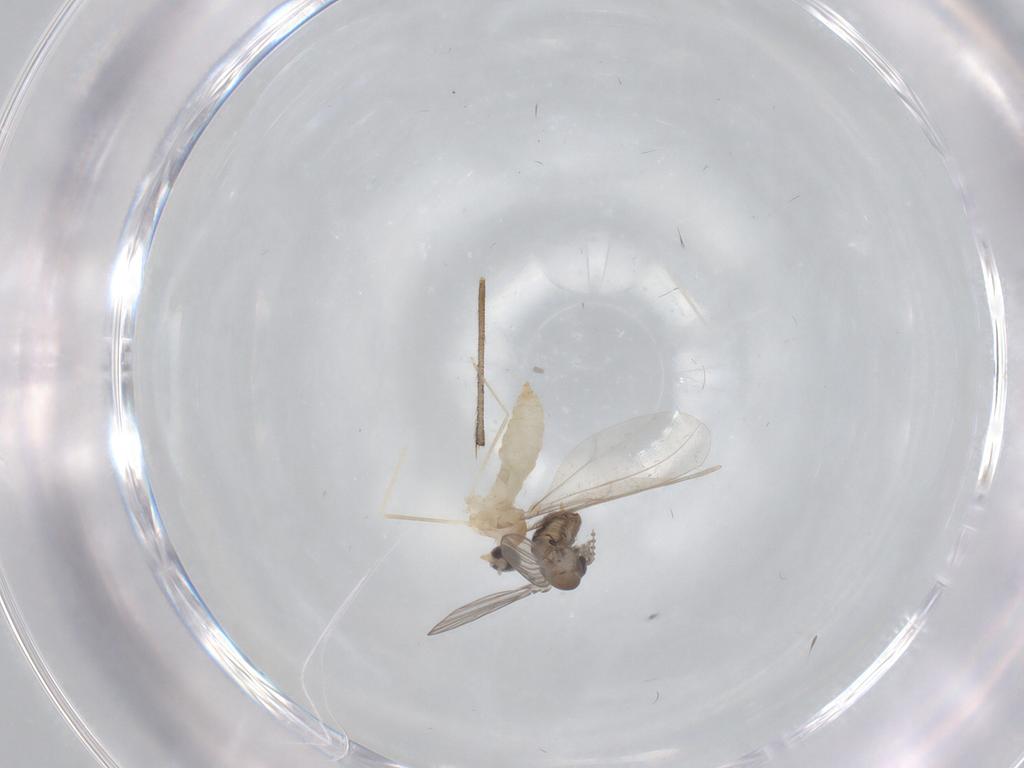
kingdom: Animalia
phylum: Arthropoda
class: Insecta
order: Diptera
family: Cecidomyiidae
